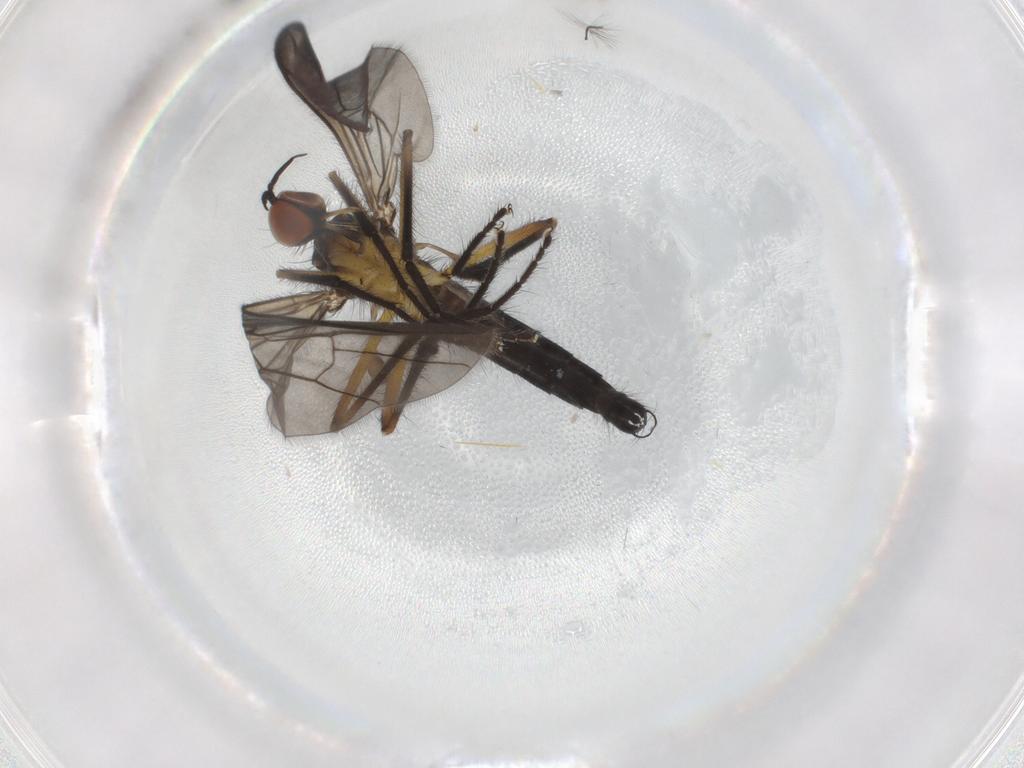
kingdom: Animalia
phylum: Arthropoda
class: Insecta
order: Diptera
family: Empididae
